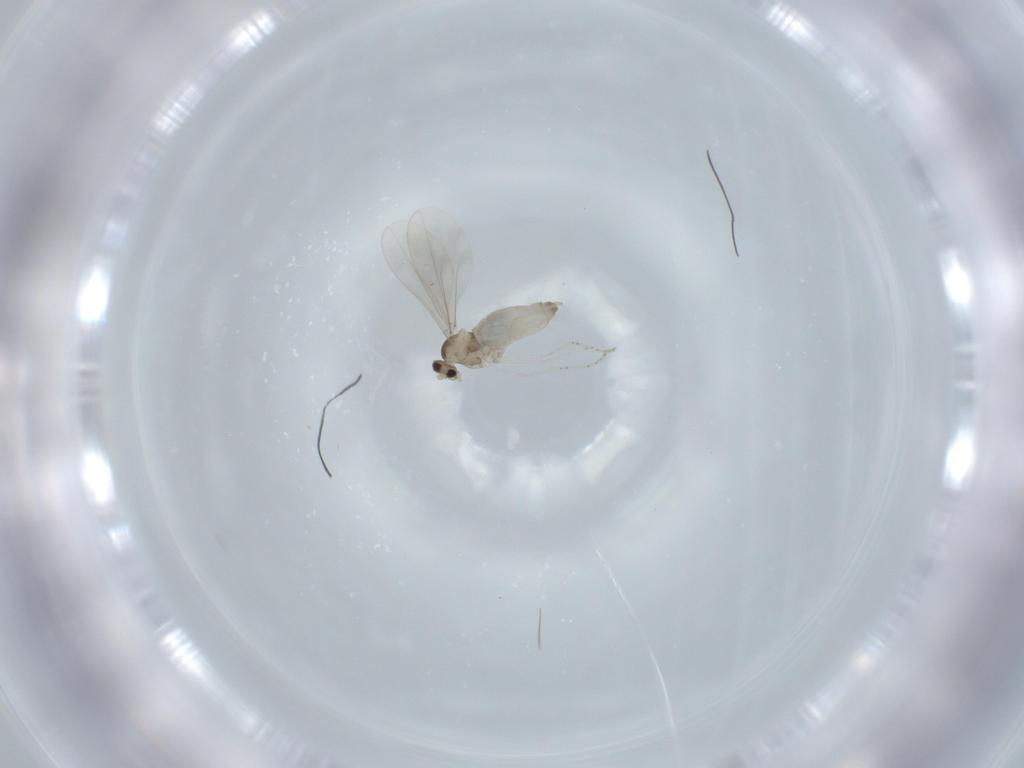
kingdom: Animalia
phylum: Arthropoda
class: Insecta
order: Diptera
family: Cecidomyiidae
